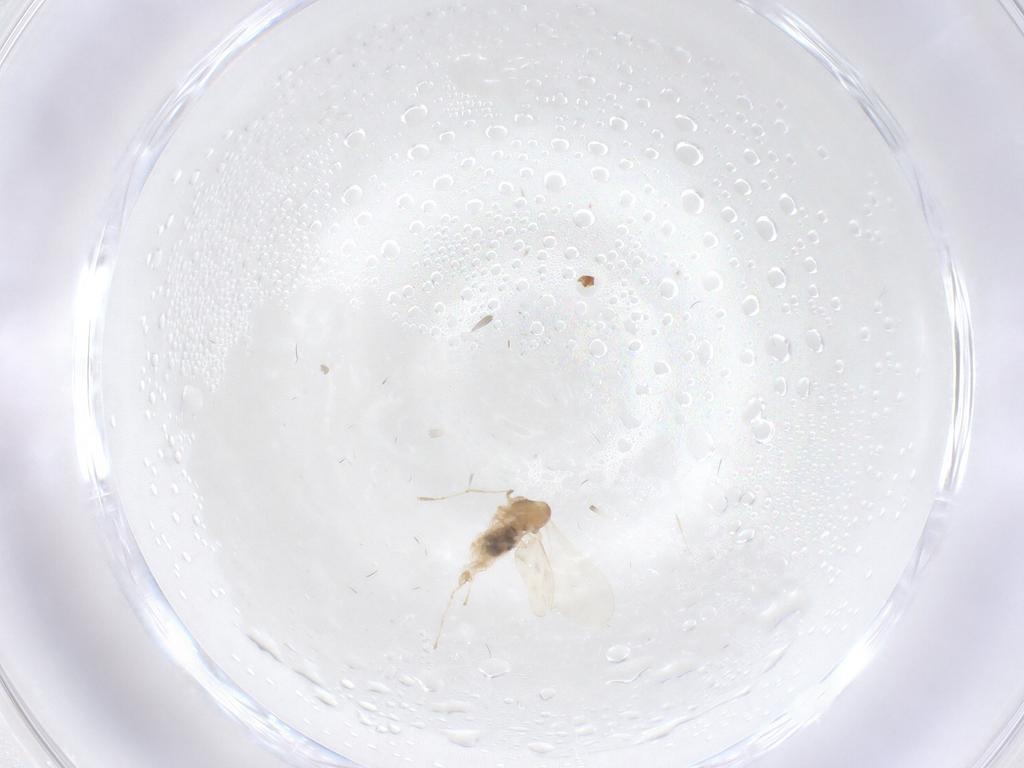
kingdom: Animalia
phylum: Arthropoda
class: Insecta
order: Diptera
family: Cecidomyiidae
